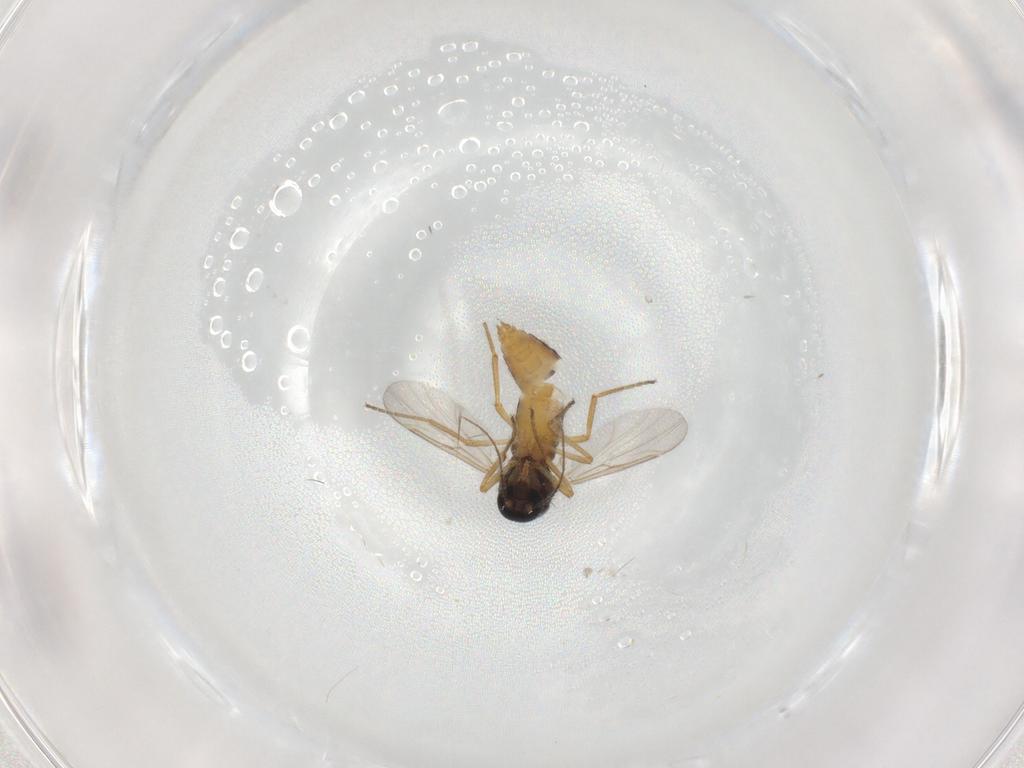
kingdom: Animalia
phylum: Arthropoda
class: Insecta
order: Diptera
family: Ceratopogonidae
